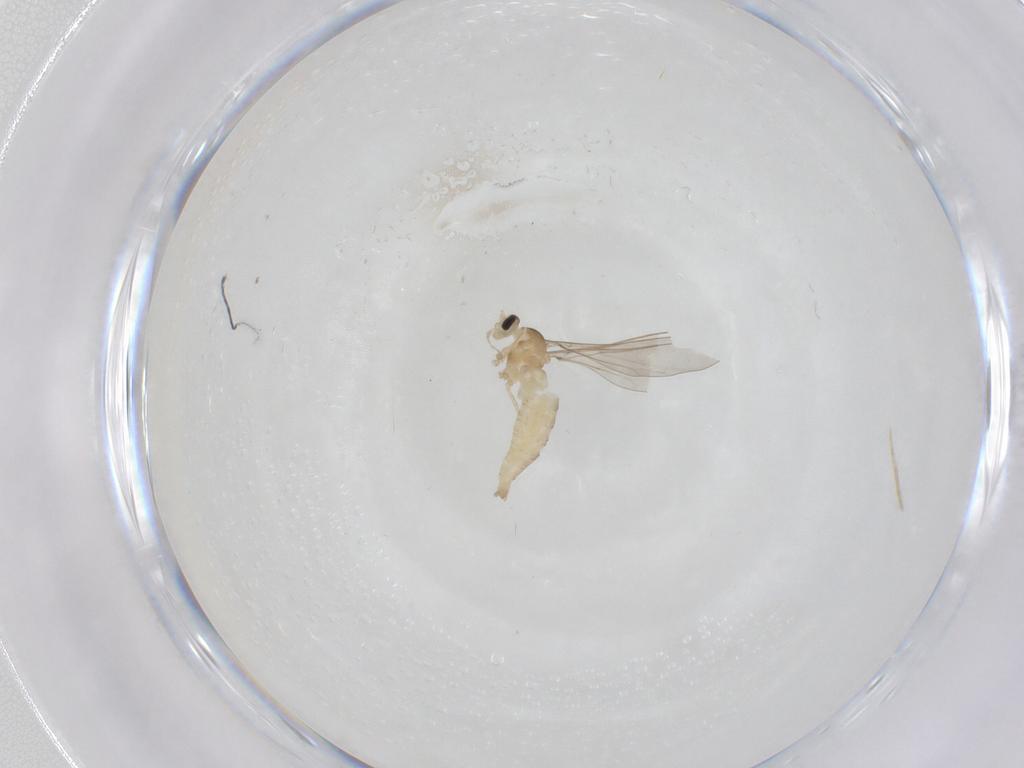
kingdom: Animalia
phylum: Arthropoda
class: Insecta
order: Diptera
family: Cecidomyiidae
